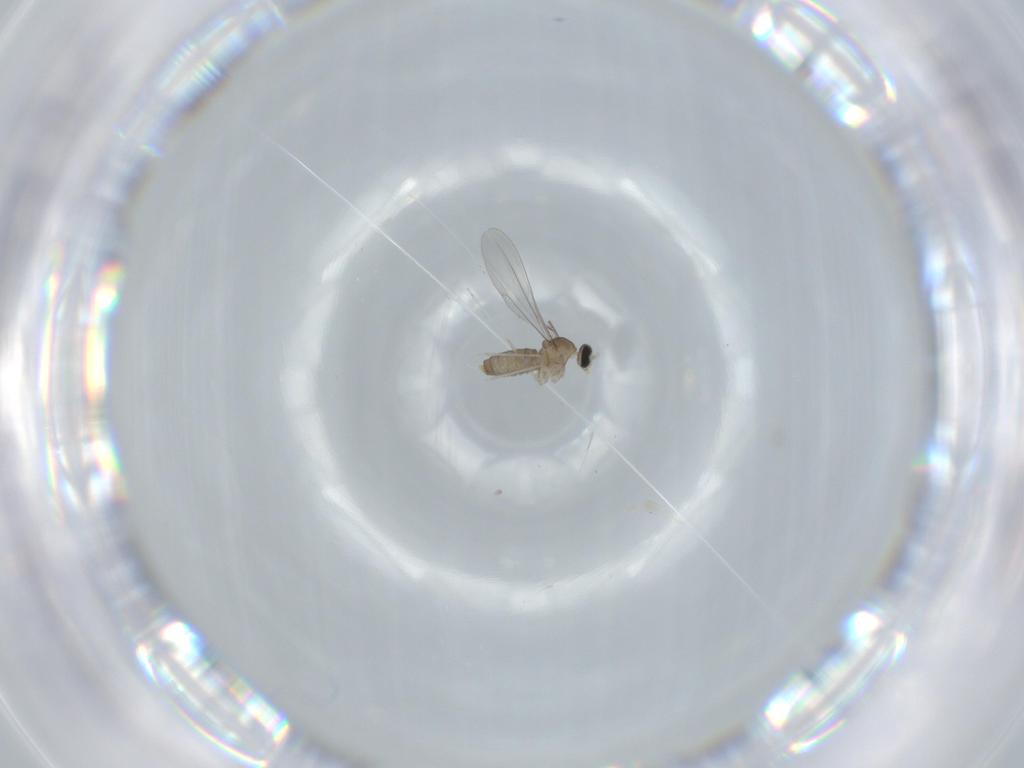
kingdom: Animalia
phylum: Arthropoda
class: Insecta
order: Diptera
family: Cecidomyiidae
